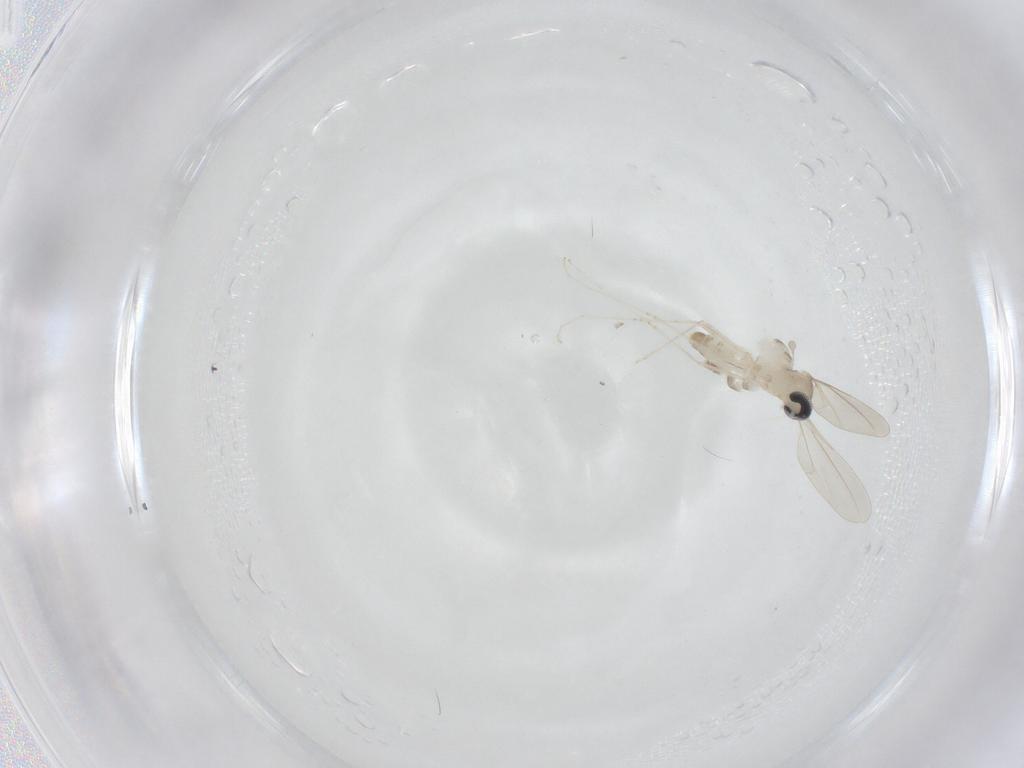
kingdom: Animalia
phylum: Arthropoda
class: Insecta
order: Diptera
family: Cecidomyiidae
